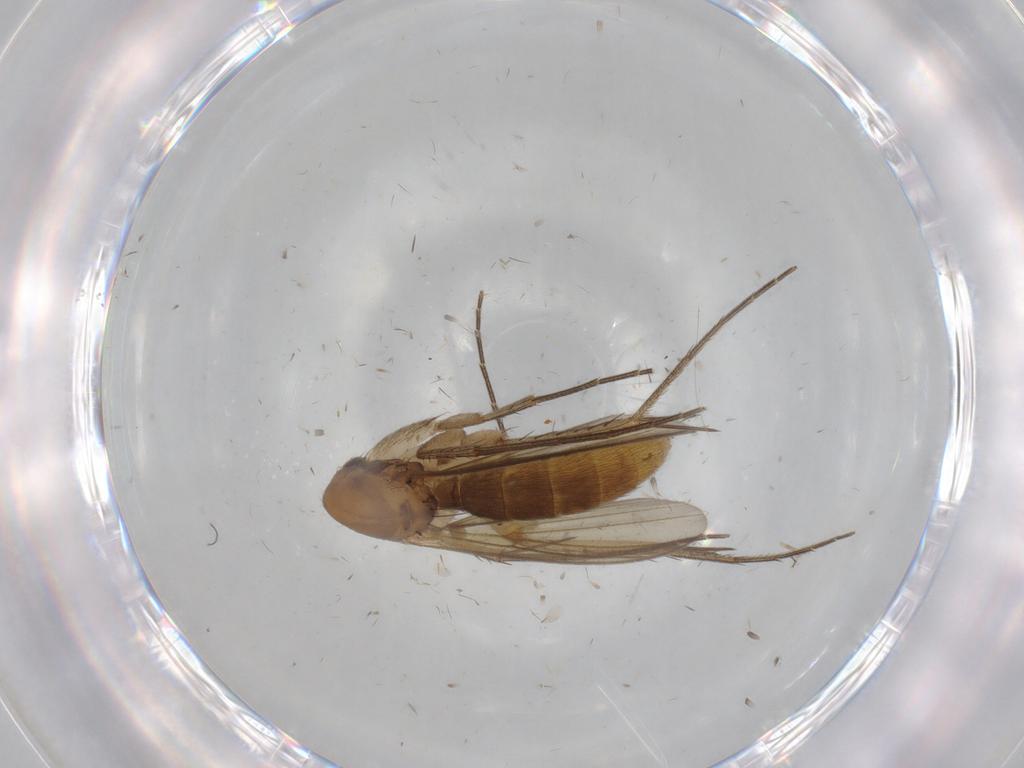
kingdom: Animalia
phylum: Arthropoda
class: Insecta
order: Diptera
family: Mycetophilidae
